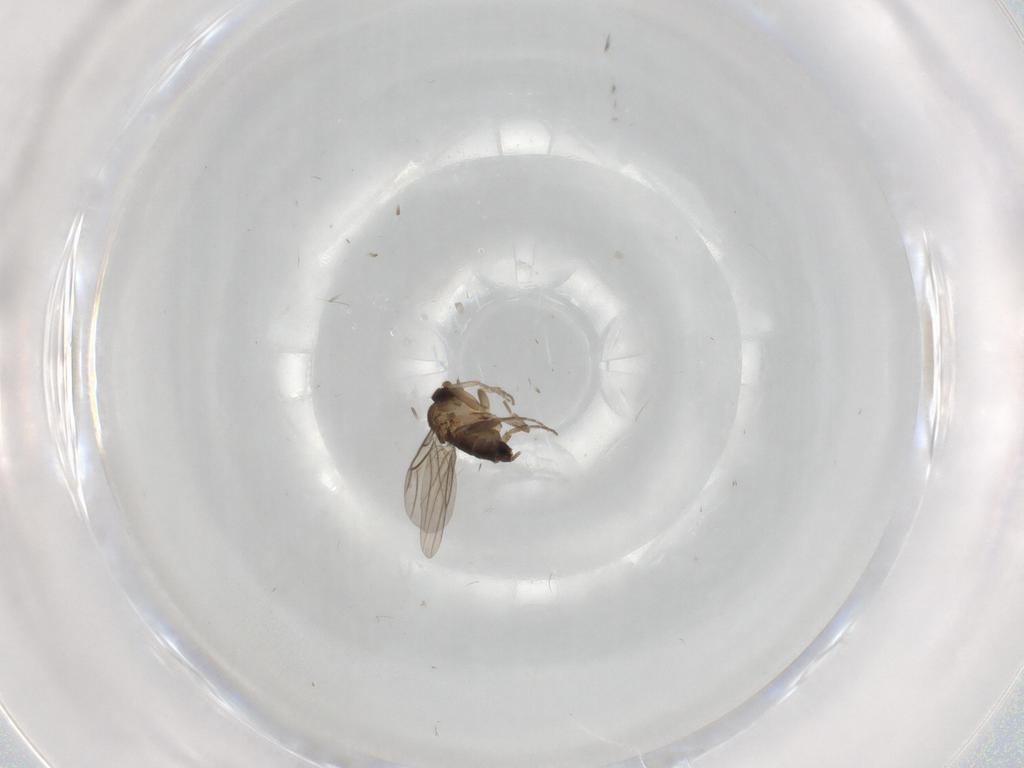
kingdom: Animalia
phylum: Arthropoda
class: Insecta
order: Diptera
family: Phoridae
